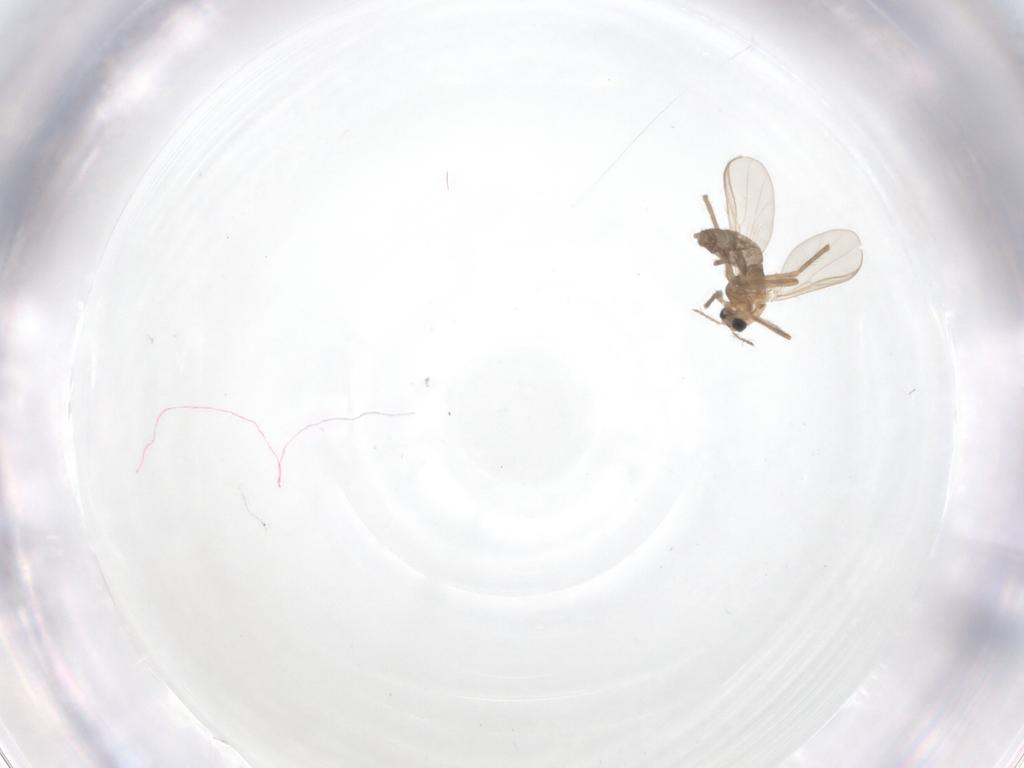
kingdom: Animalia
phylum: Arthropoda
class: Insecta
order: Diptera
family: Chironomidae
